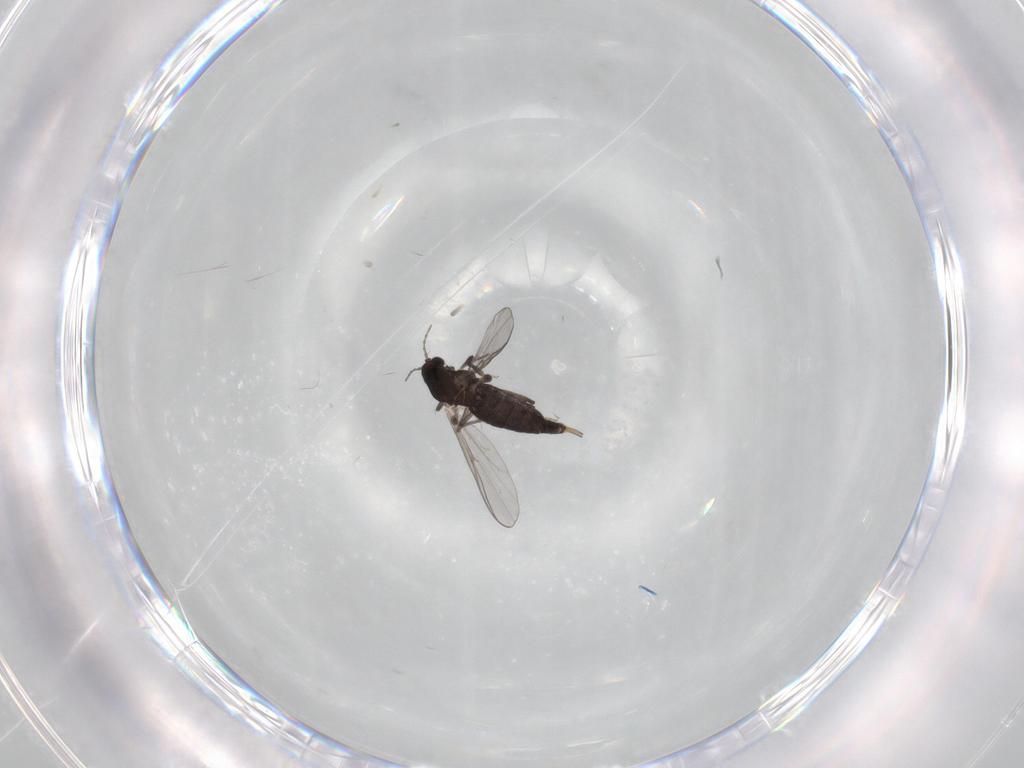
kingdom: Animalia
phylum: Arthropoda
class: Insecta
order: Diptera
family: Chironomidae
